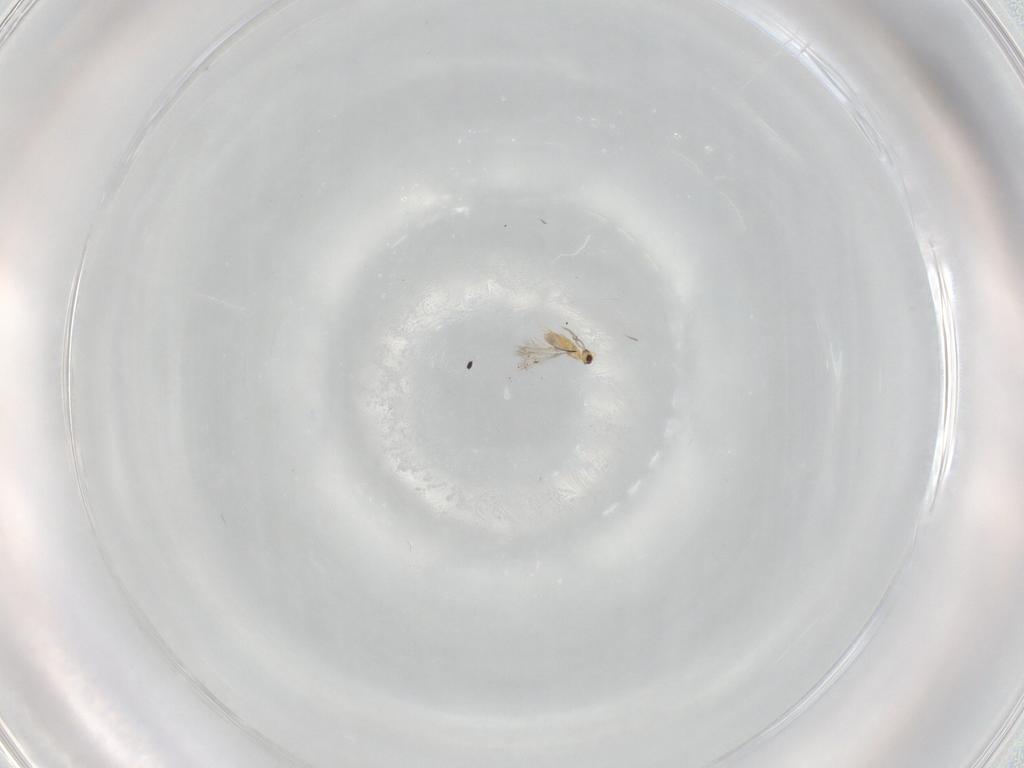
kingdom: Animalia
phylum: Arthropoda
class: Insecta
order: Hymenoptera
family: Mymaridae
